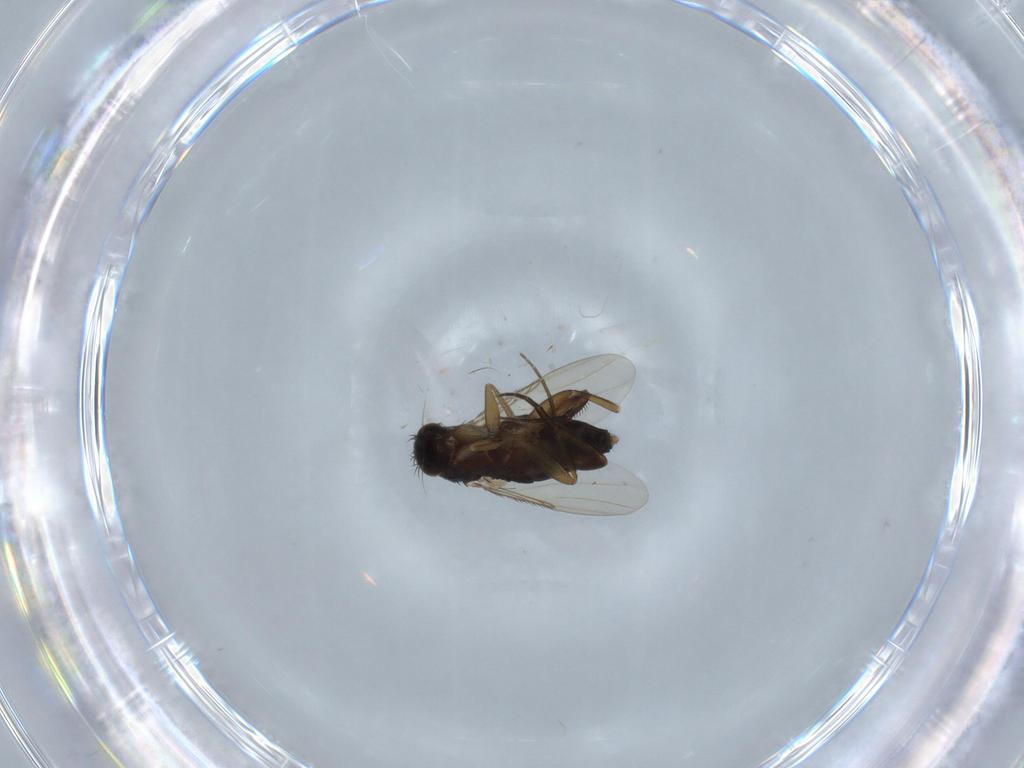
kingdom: Animalia
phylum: Arthropoda
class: Insecta
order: Diptera
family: Phoridae
